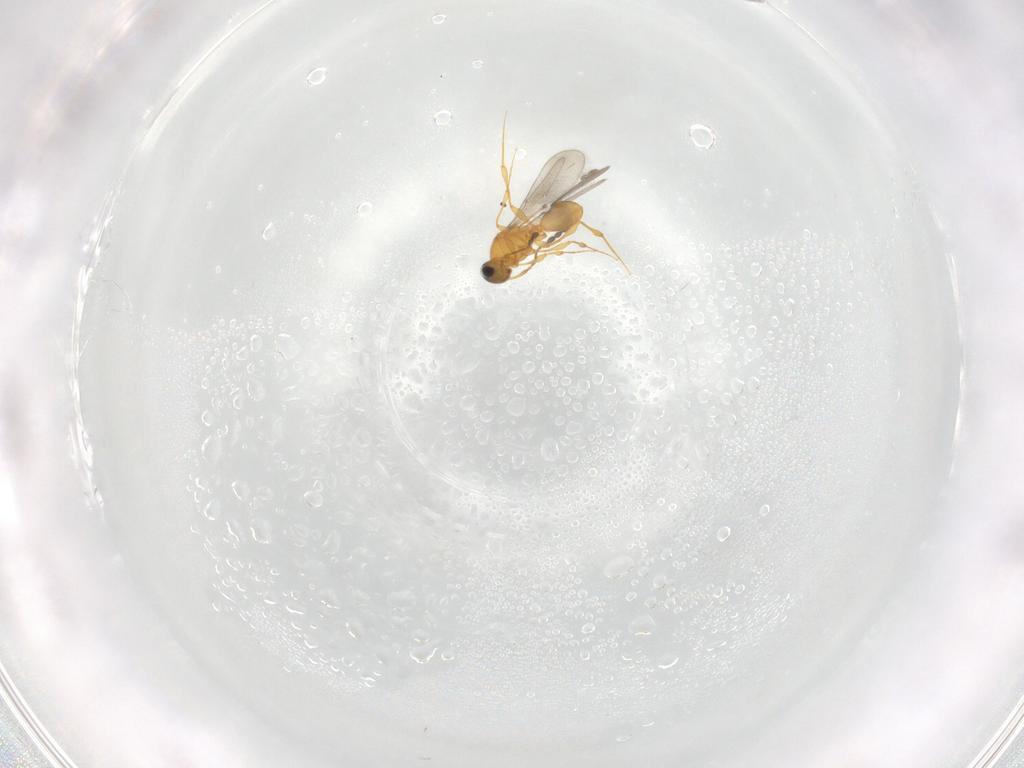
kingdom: Animalia
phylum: Arthropoda
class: Insecta
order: Hymenoptera
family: Platygastridae
